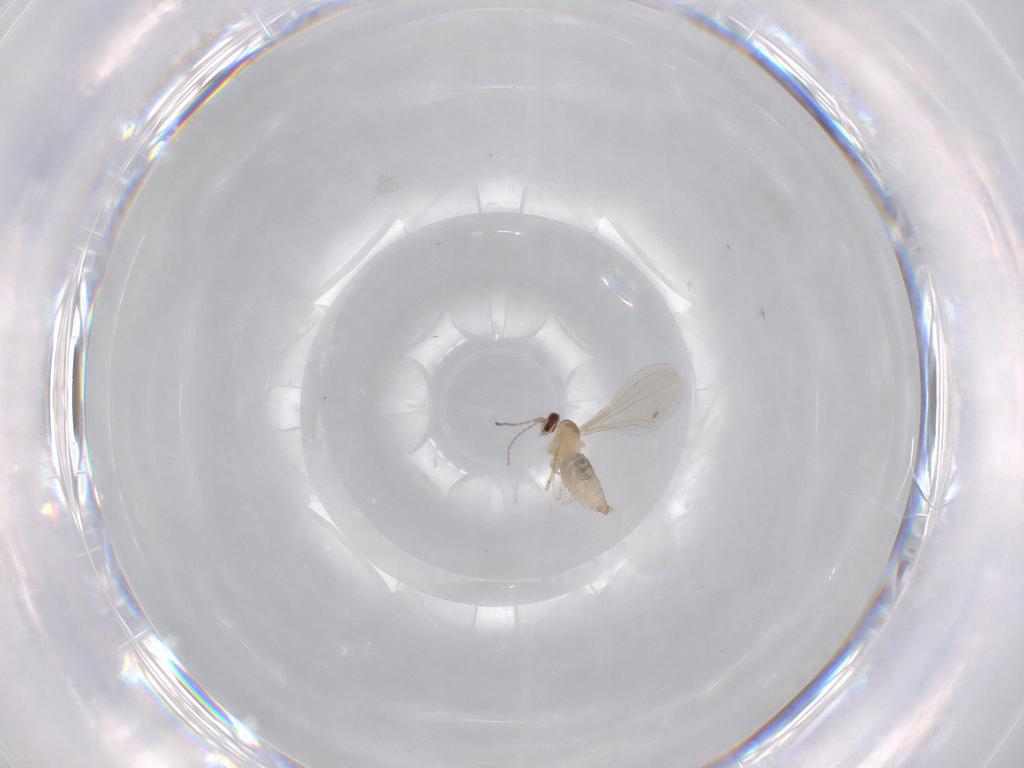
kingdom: Animalia
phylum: Arthropoda
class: Insecta
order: Diptera
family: Cecidomyiidae
